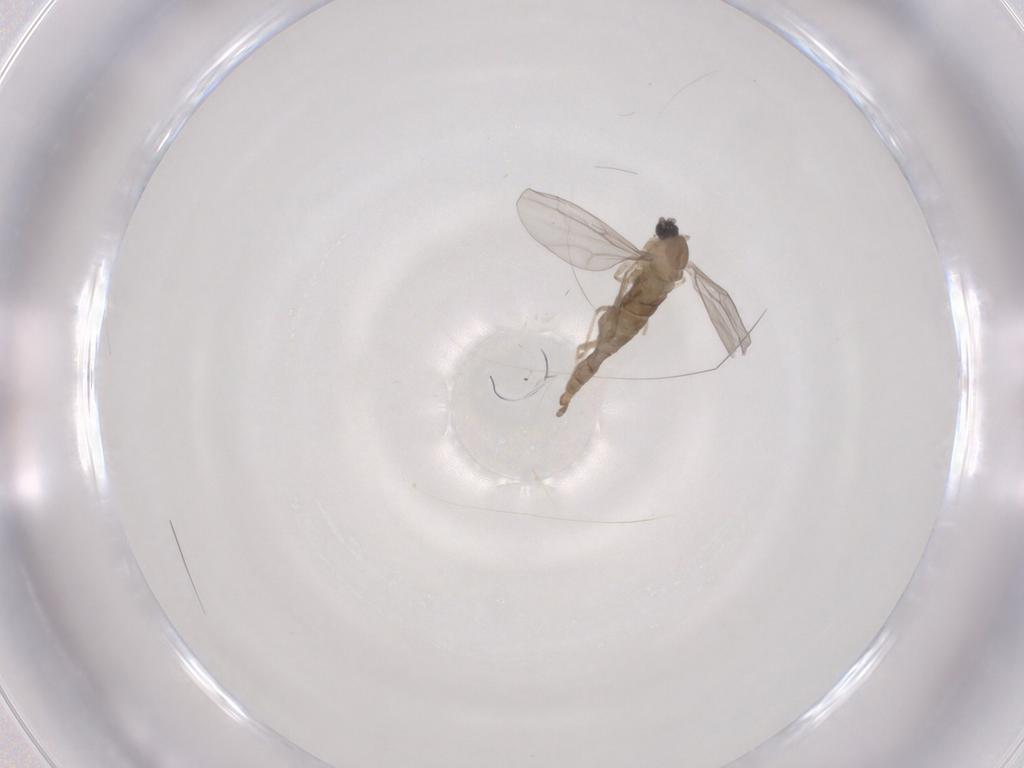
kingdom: Animalia
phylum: Arthropoda
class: Insecta
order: Diptera
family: Cecidomyiidae
